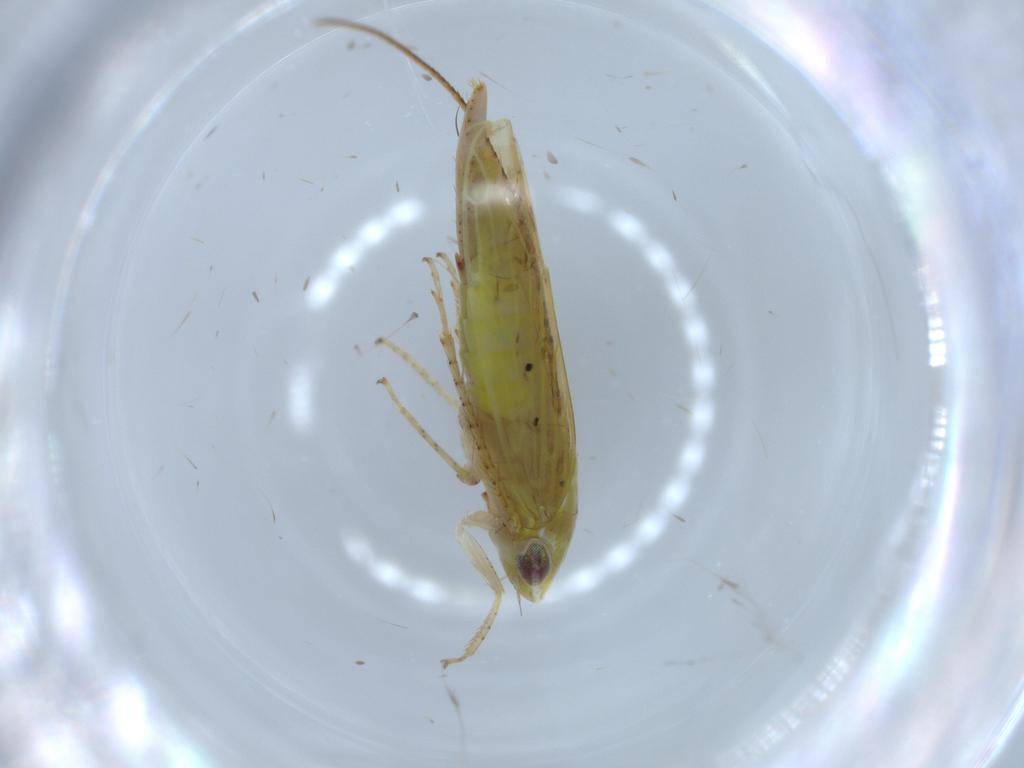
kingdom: Animalia
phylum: Arthropoda
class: Insecta
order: Hemiptera
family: Cicadellidae
